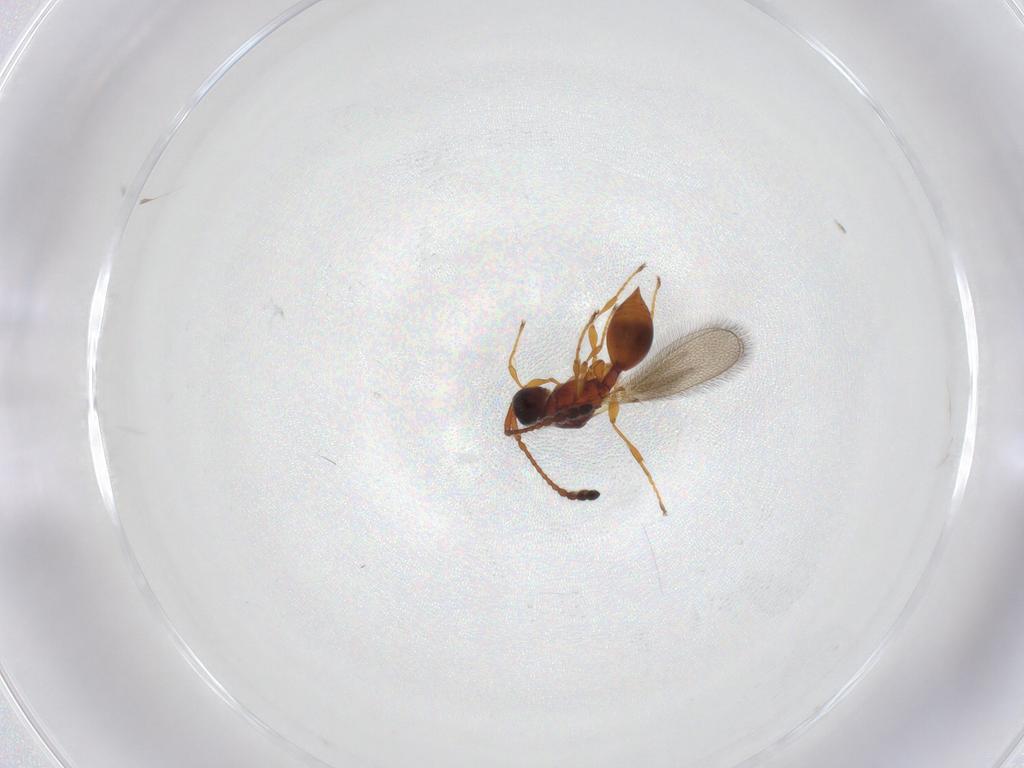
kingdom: Animalia
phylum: Arthropoda
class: Insecta
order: Hymenoptera
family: Diapriidae
